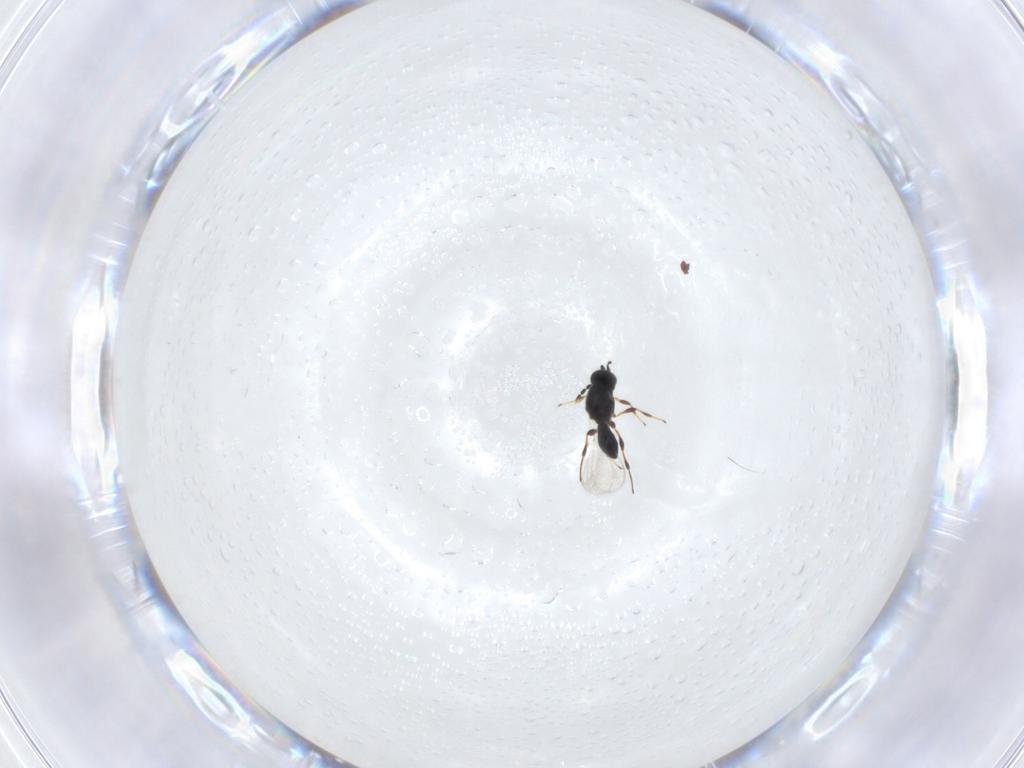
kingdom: Animalia
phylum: Arthropoda
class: Insecta
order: Hymenoptera
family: Platygastridae
